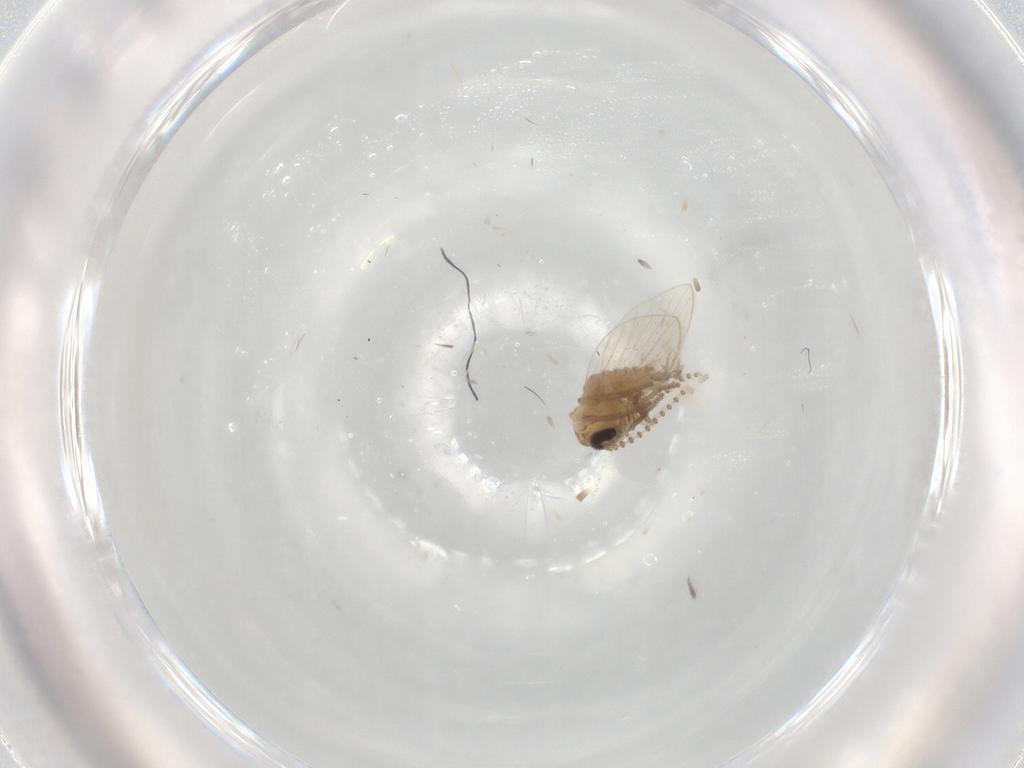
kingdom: Animalia
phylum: Arthropoda
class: Insecta
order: Diptera
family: Psychodidae
